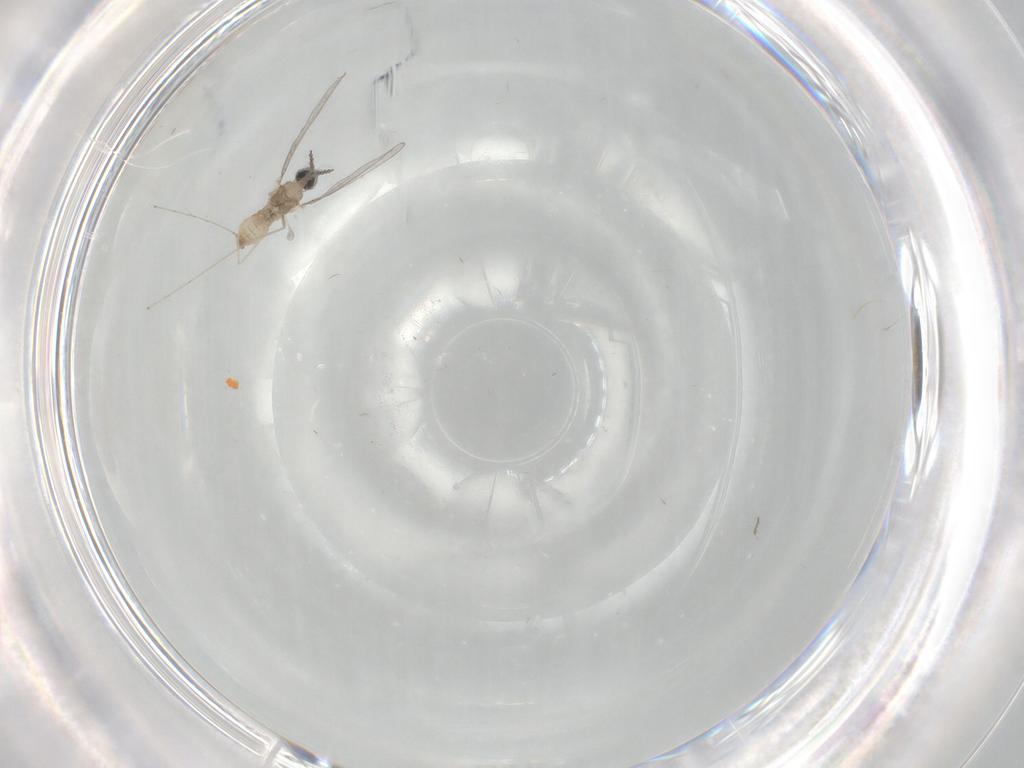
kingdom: Animalia
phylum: Arthropoda
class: Insecta
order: Diptera
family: Cecidomyiidae
